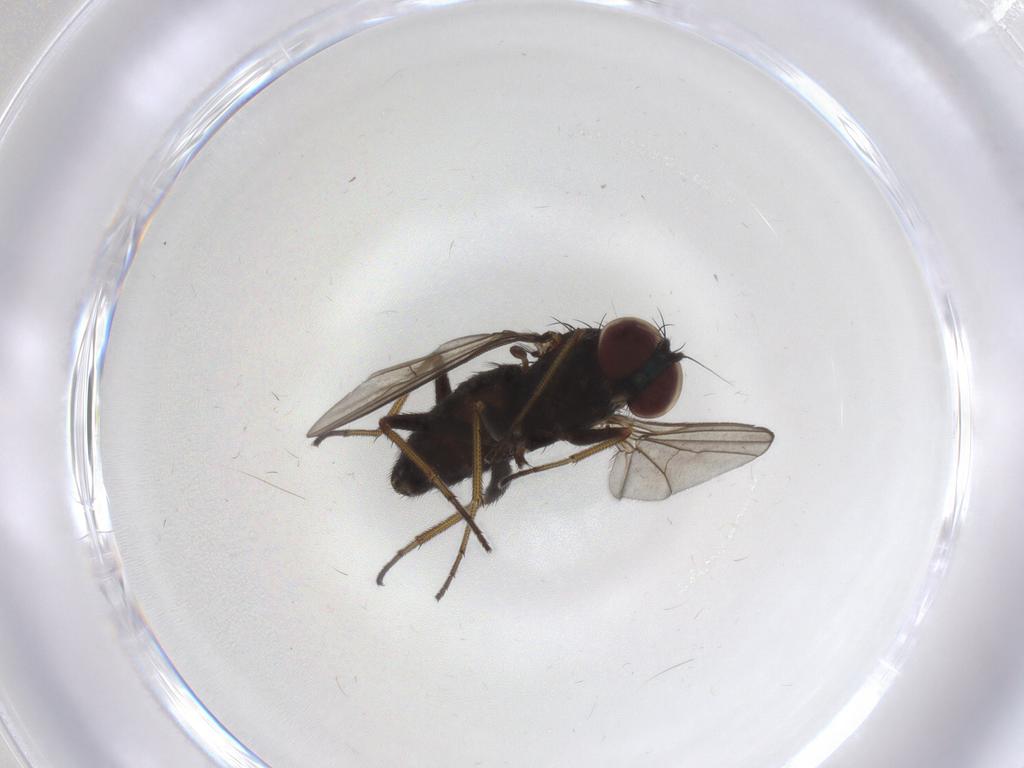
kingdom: Animalia
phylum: Arthropoda
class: Insecta
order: Diptera
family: Dolichopodidae
